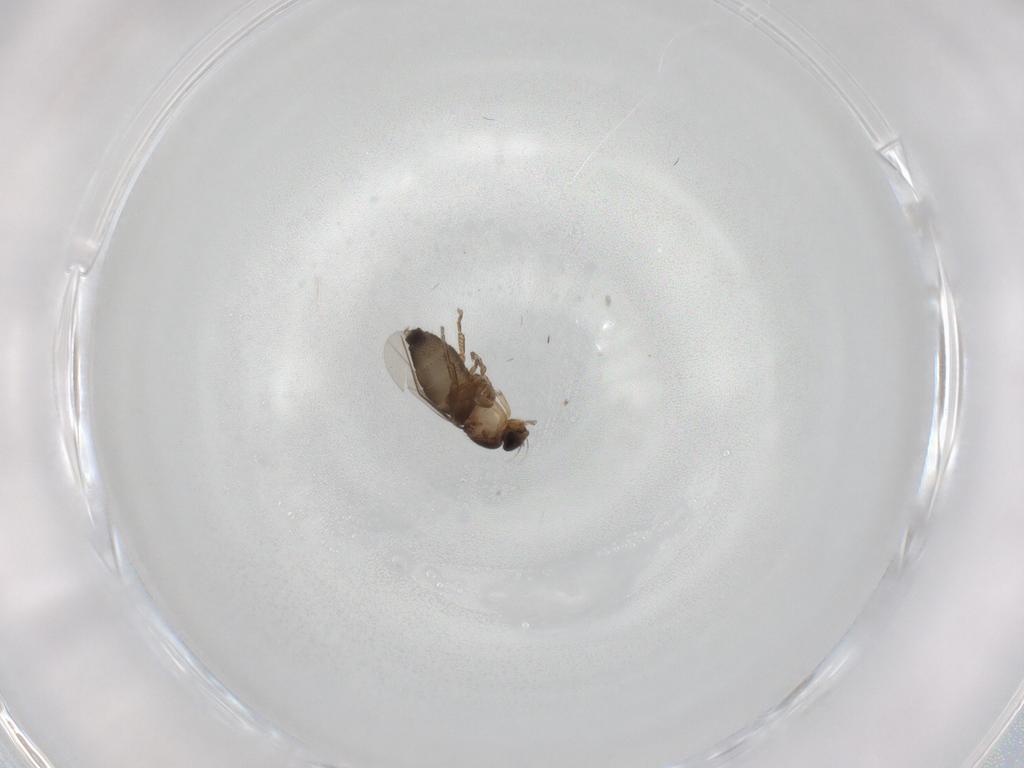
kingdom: Animalia
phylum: Arthropoda
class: Insecta
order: Diptera
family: Phoridae
